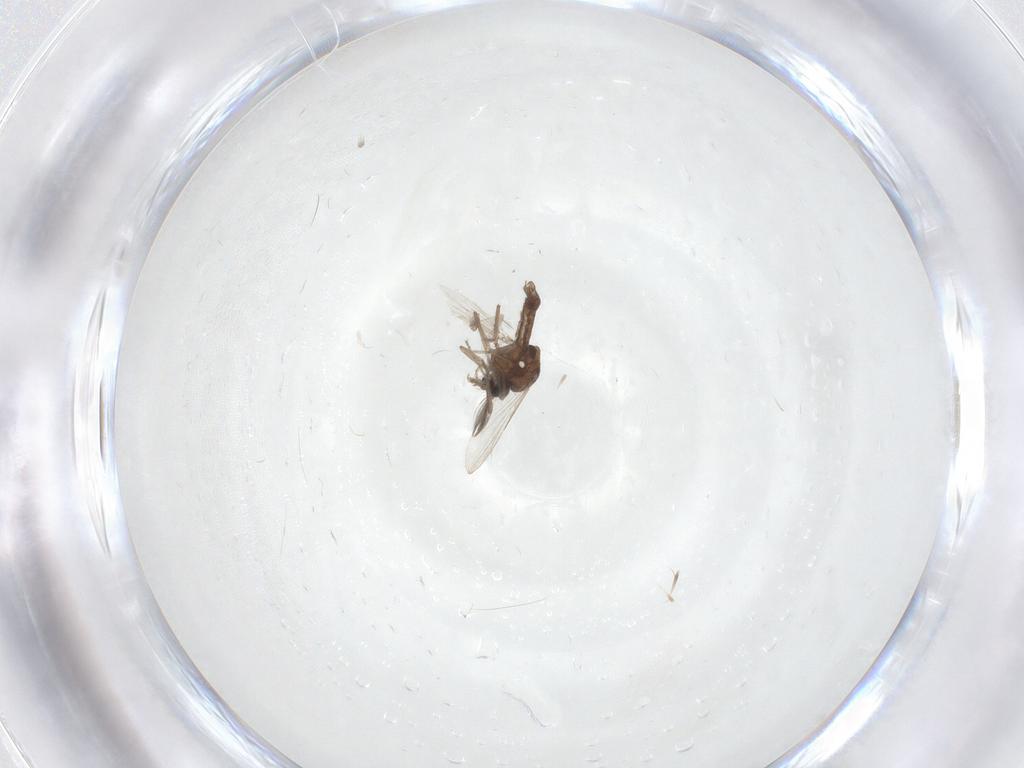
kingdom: Animalia
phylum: Arthropoda
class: Insecta
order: Diptera
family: Ceratopogonidae
